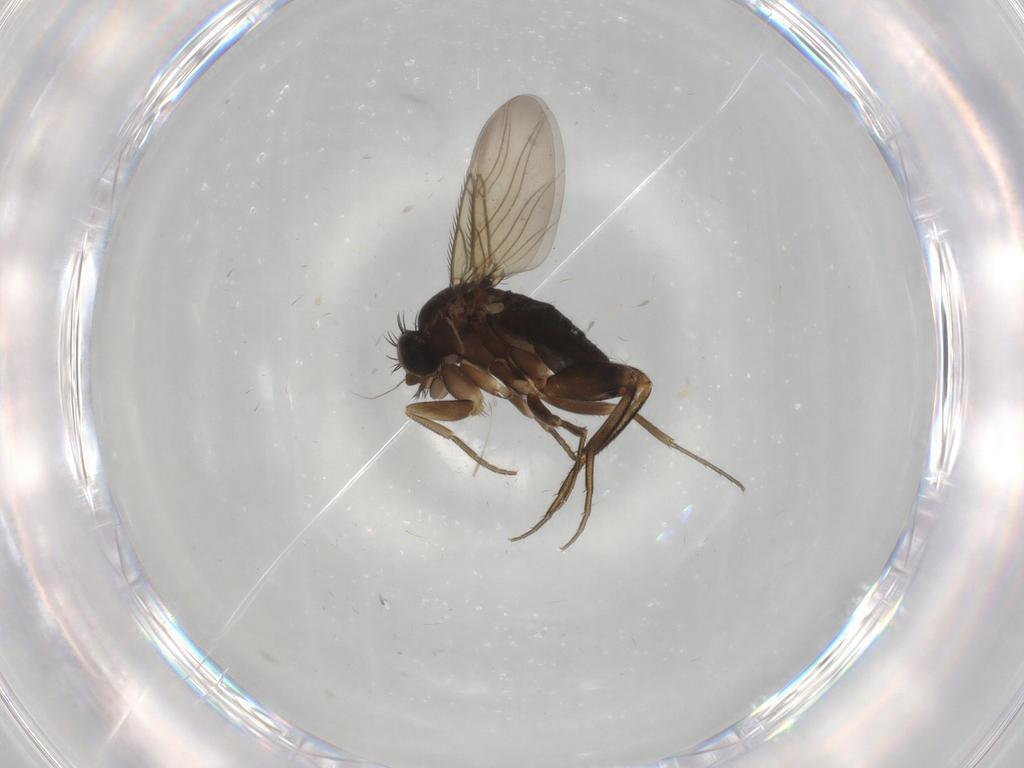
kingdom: Animalia
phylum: Arthropoda
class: Insecta
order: Diptera
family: Phoridae
